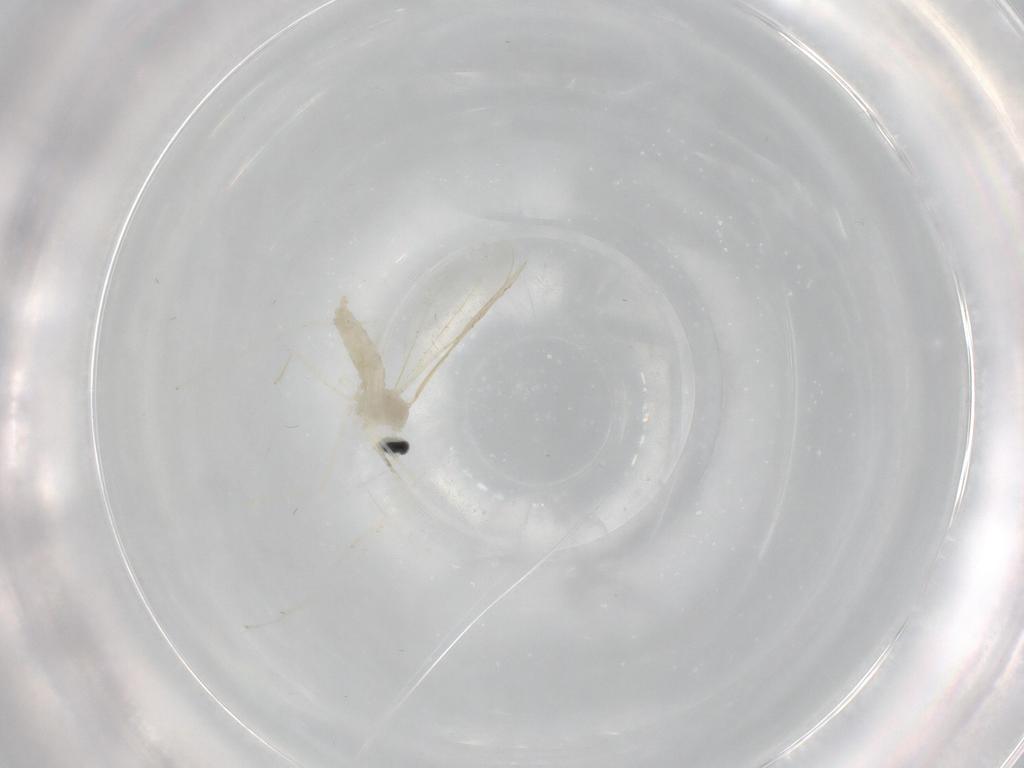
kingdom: Animalia
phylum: Arthropoda
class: Insecta
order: Diptera
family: Cecidomyiidae
